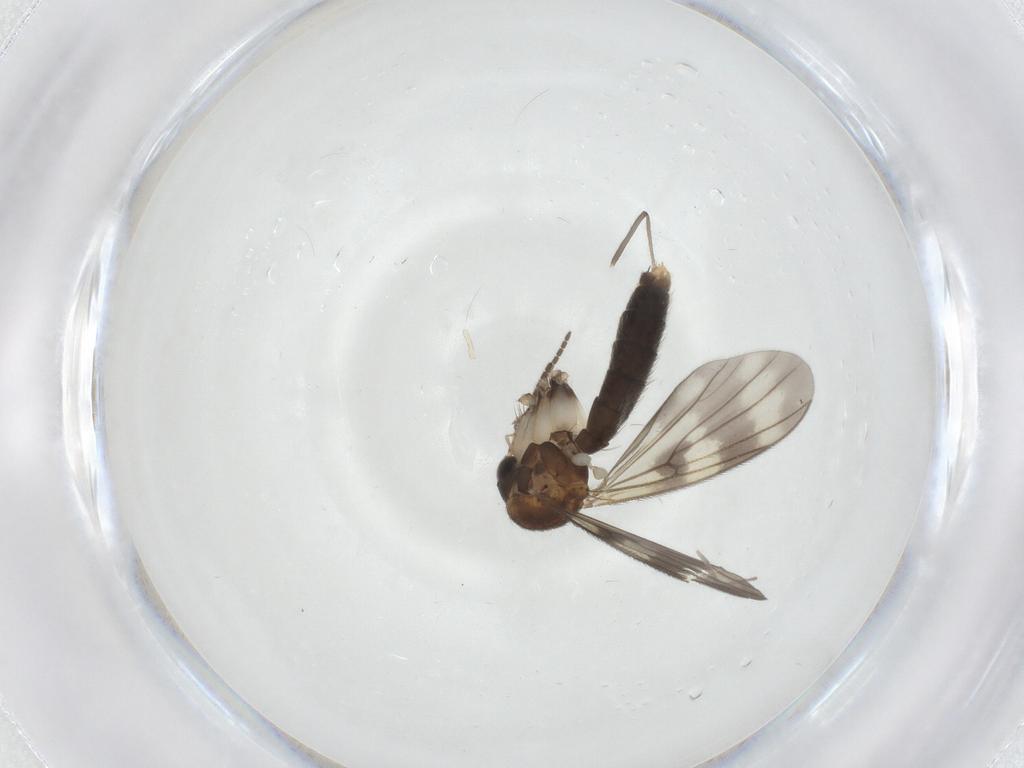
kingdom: Animalia
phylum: Arthropoda
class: Insecta
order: Diptera
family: Chironomidae
